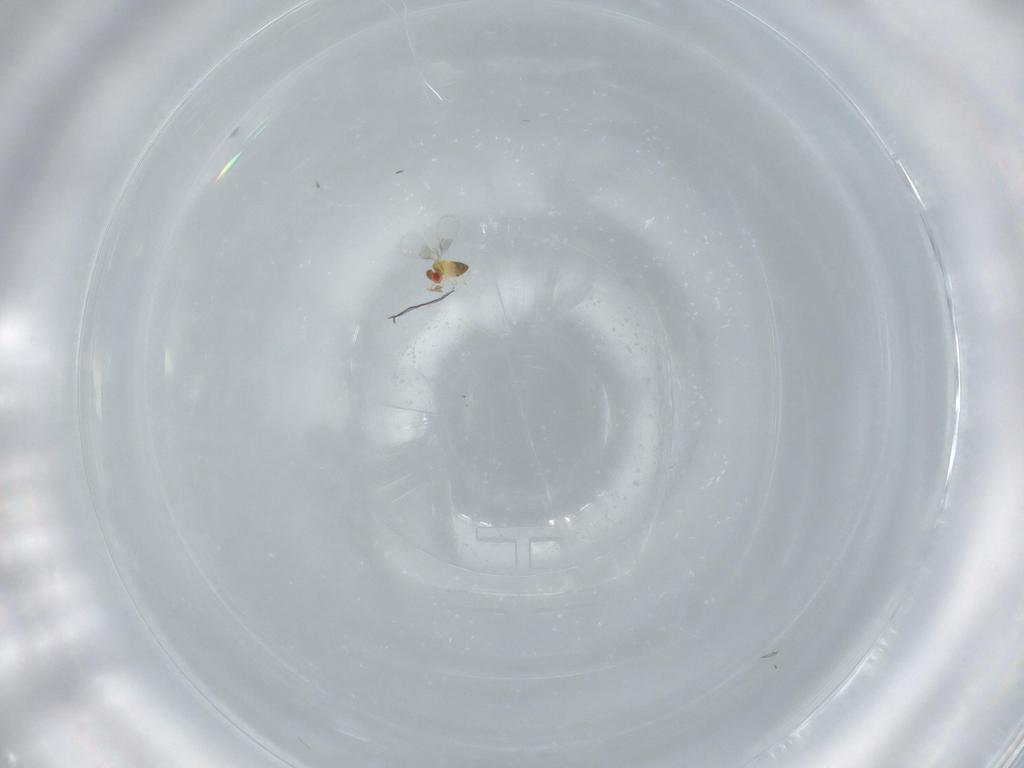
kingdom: Animalia
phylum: Arthropoda
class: Insecta
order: Hymenoptera
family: Trichogrammatidae
